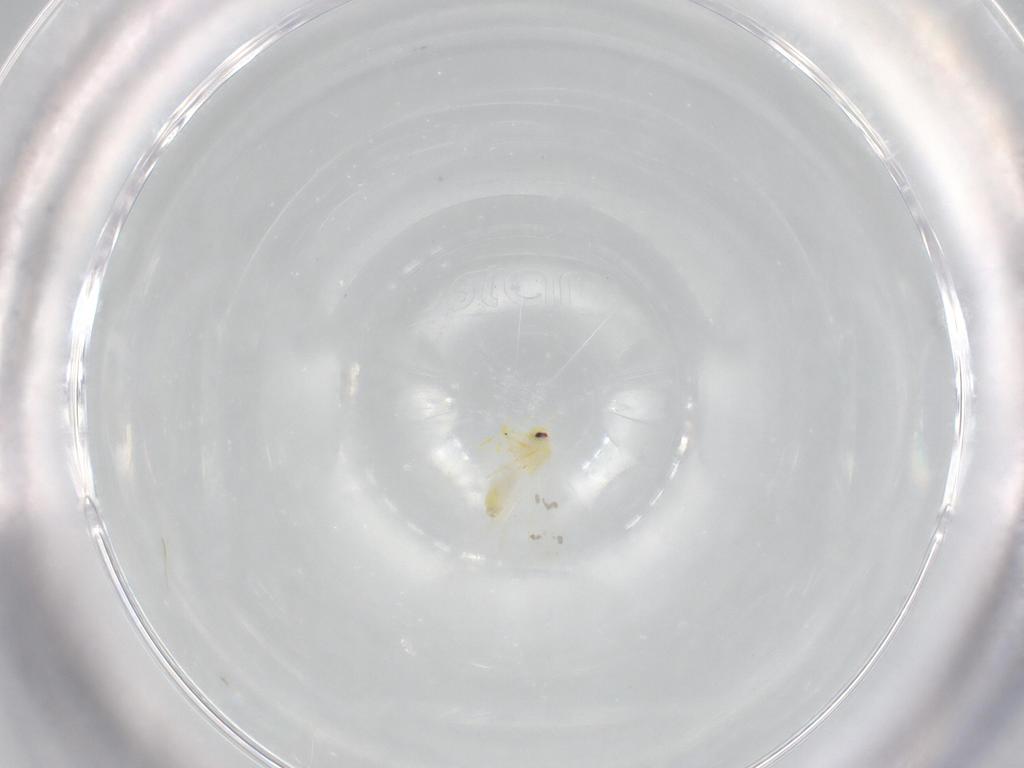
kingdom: Animalia
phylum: Arthropoda
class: Insecta
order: Hemiptera
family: Aleyrodidae
